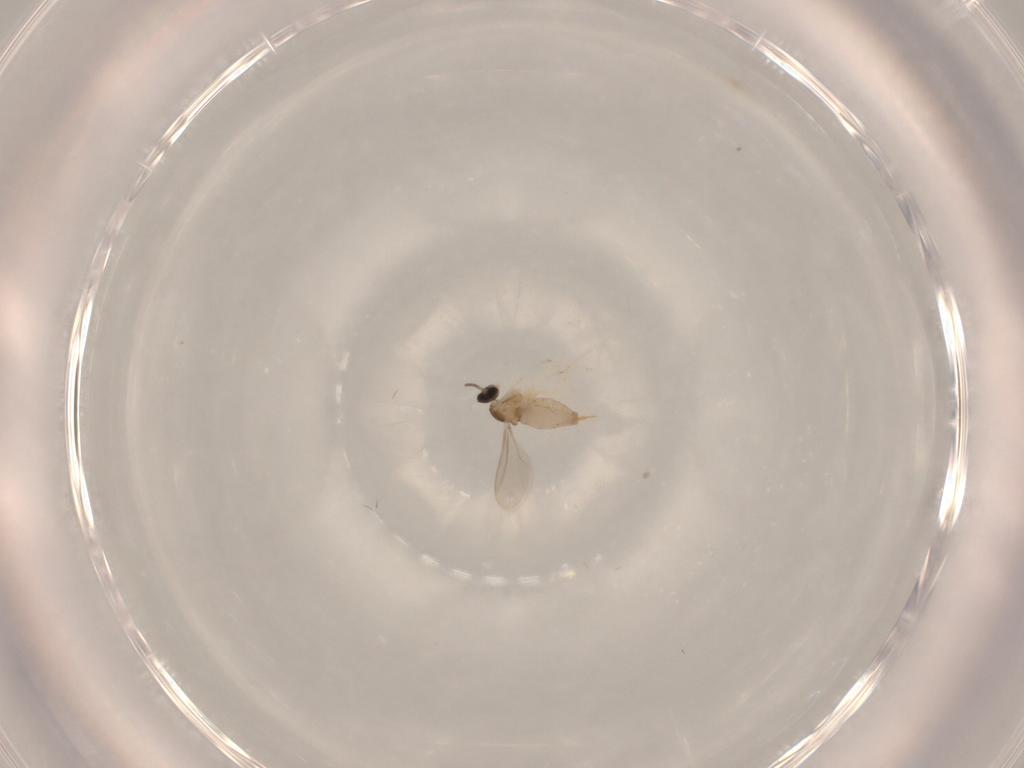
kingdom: Animalia
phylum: Arthropoda
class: Insecta
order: Diptera
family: Cecidomyiidae
